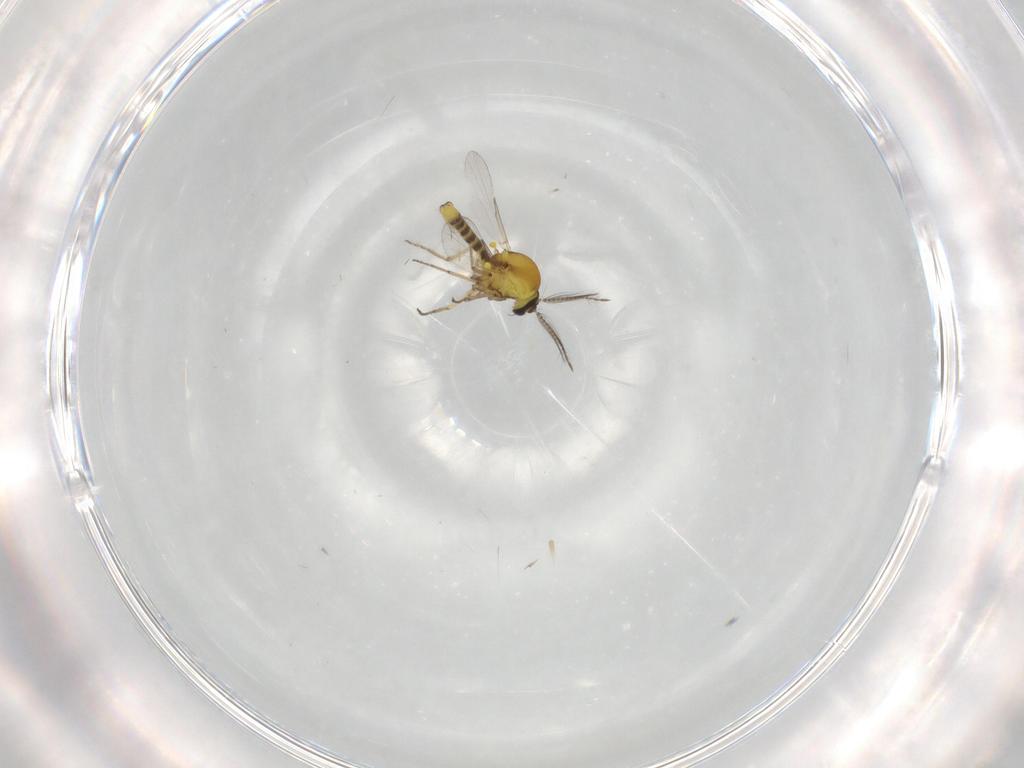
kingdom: Animalia
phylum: Arthropoda
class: Insecta
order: Diptera
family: Ceratopogonidae
